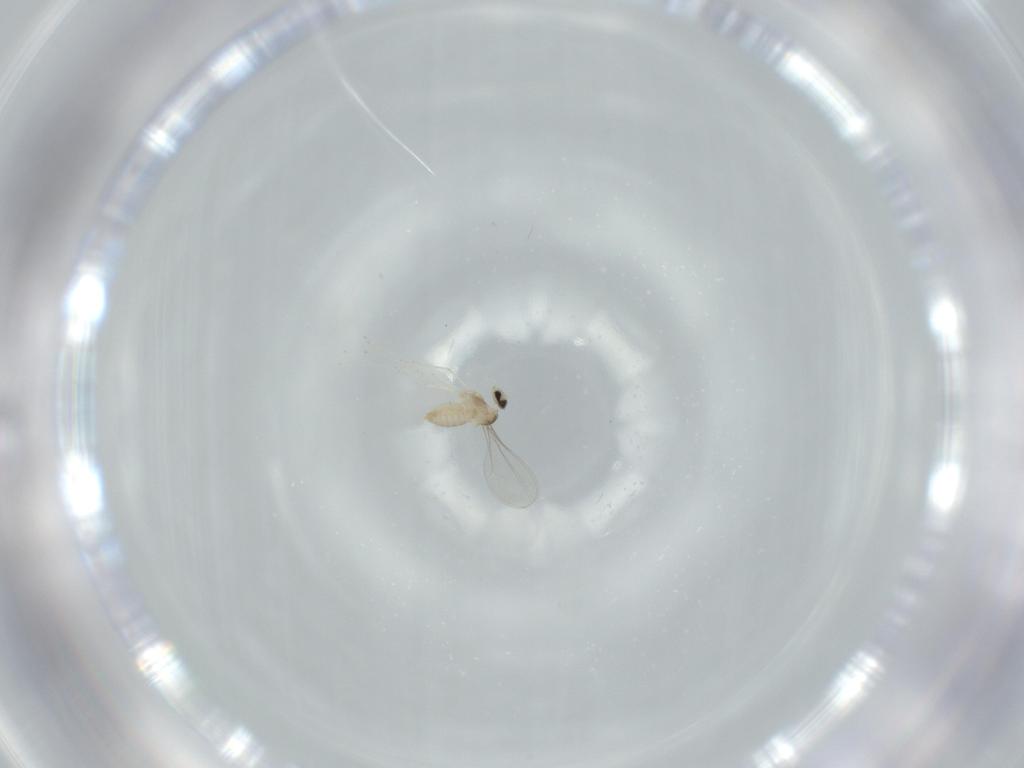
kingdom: Animalia
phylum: Arthropoda
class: Insecta
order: Diptera
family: Cecidomyiidae
